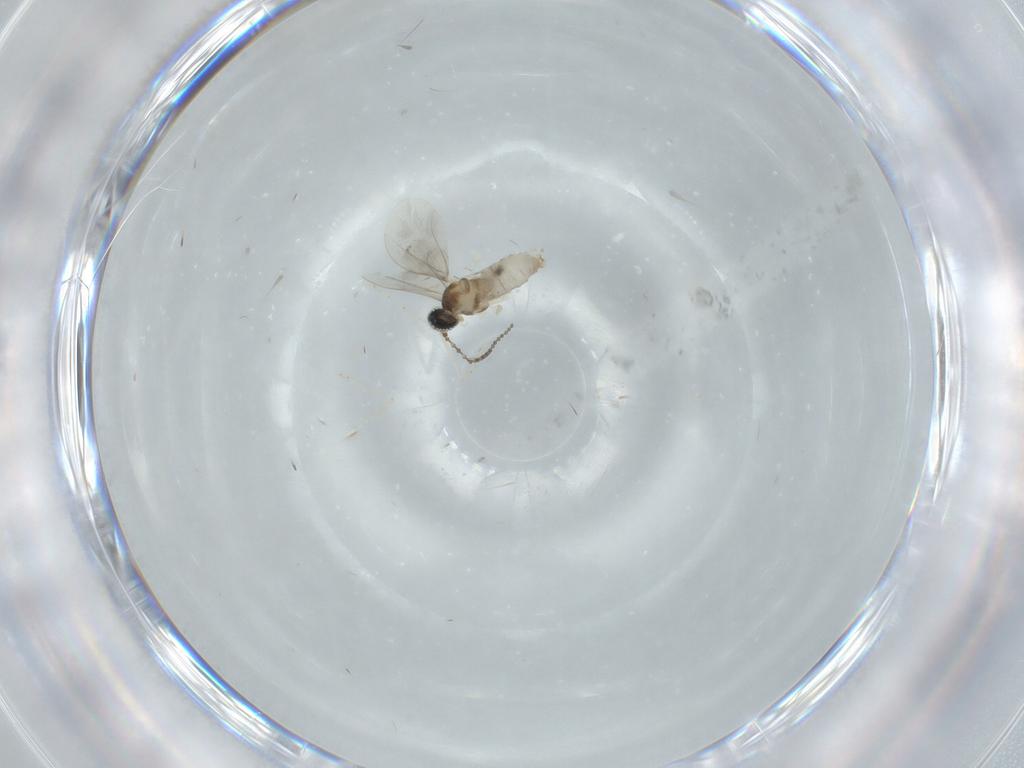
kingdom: Animalia
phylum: Arthropoda
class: Insecta
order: Diptera
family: Cecidomyiidae
